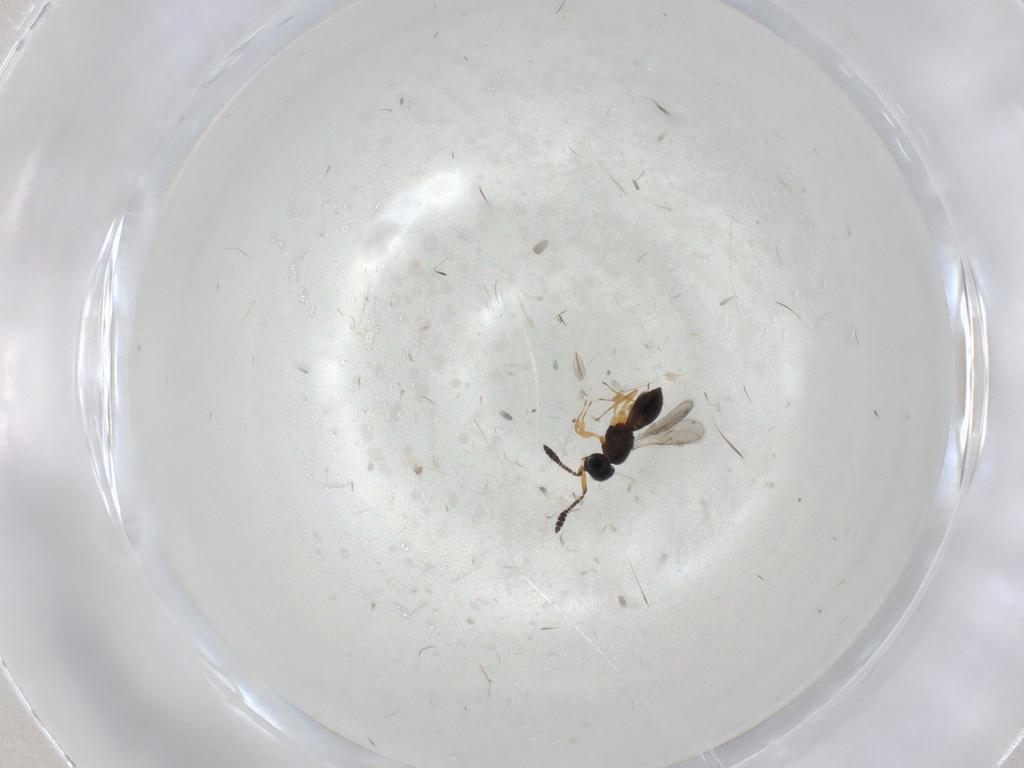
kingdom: Animalia
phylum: Arthropoda
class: Insecta
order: Hymenoptera
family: Scelionidae
